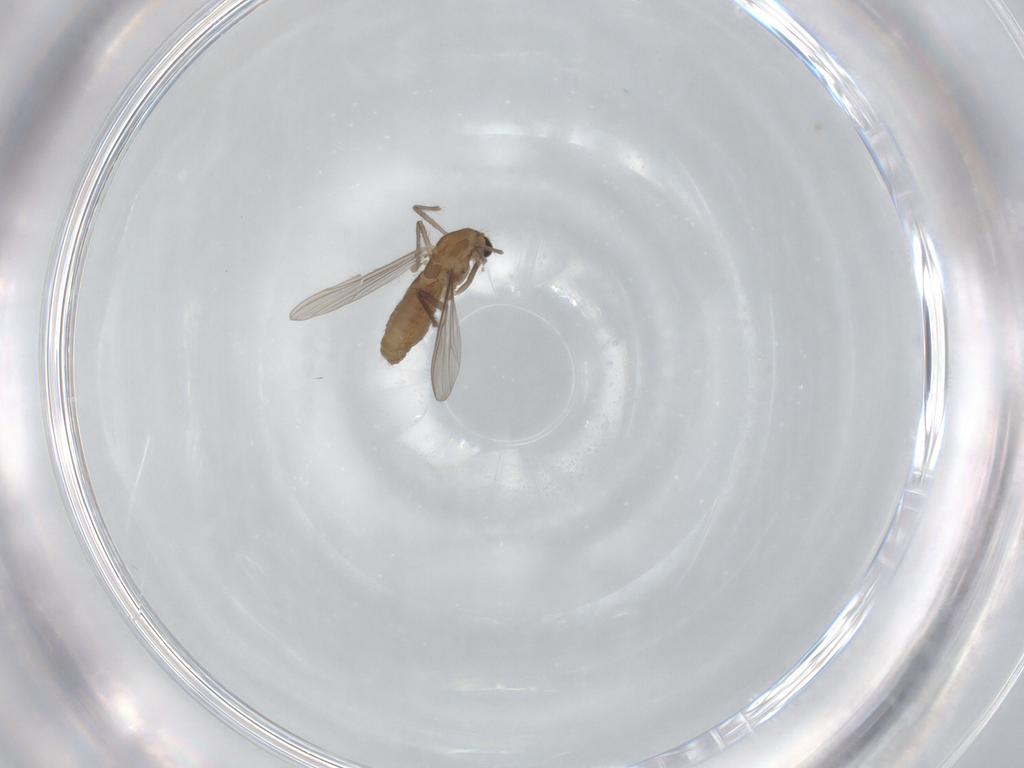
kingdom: Animalia
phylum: Arthropoda
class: Insecta
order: Diptera
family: Chironomidae
